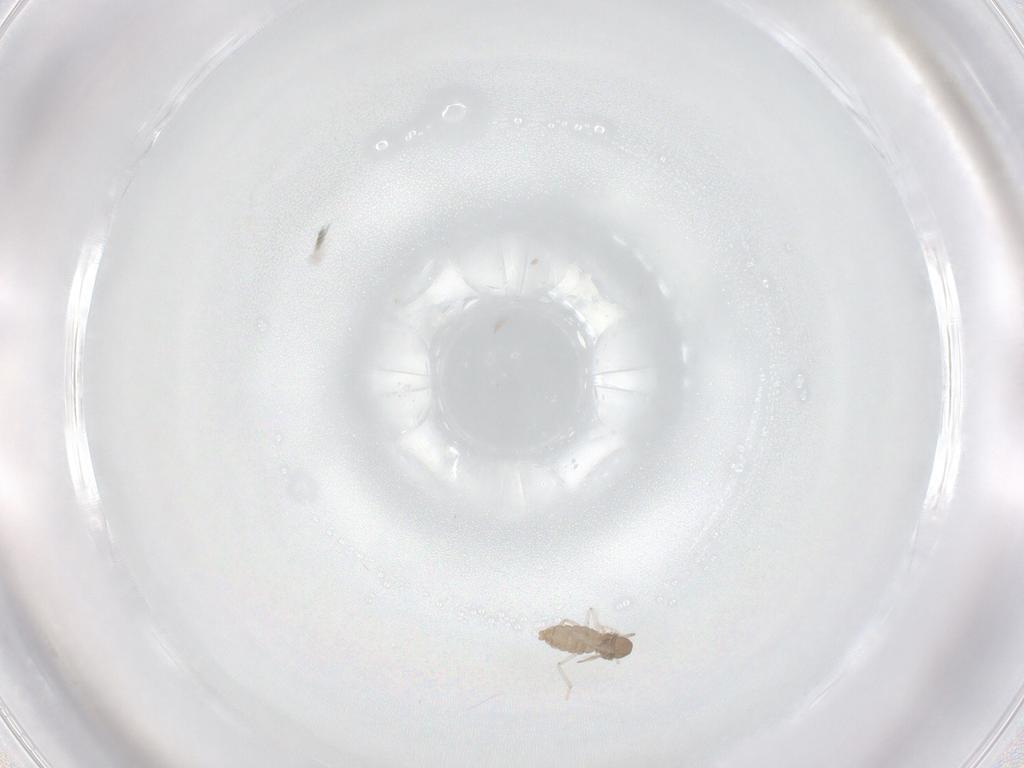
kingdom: Animalia
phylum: Arthropoda
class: Insecta
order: Diptera
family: Cecidomyiidae
